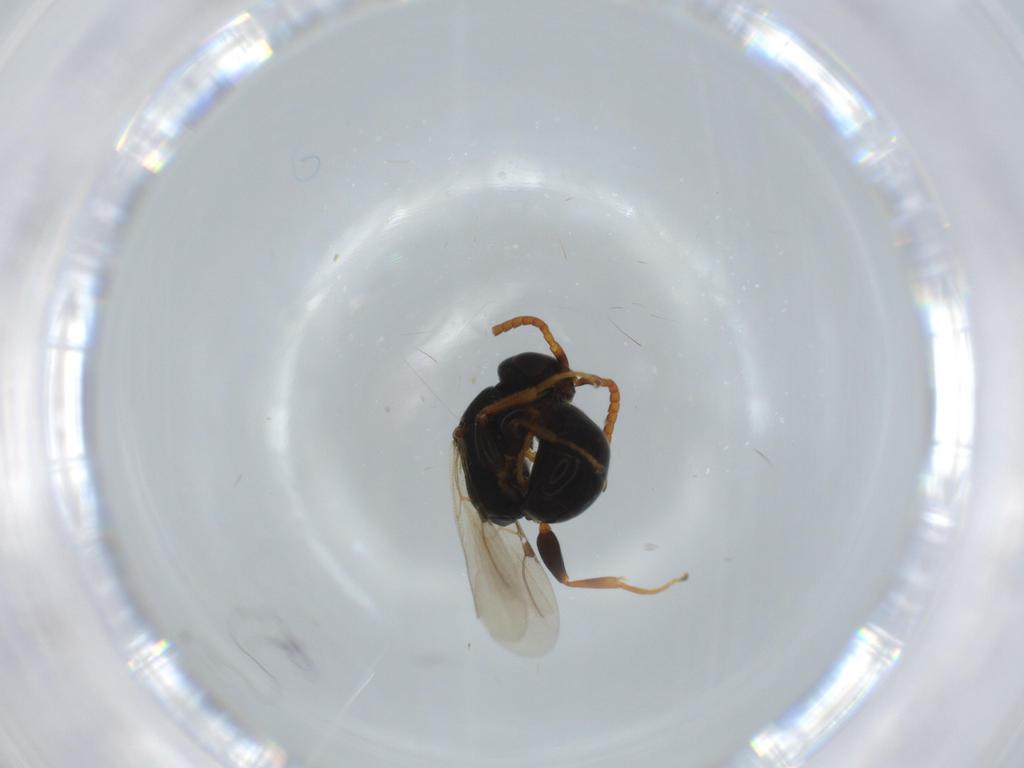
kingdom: Animalia
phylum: Arthropoda
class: Insecta
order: Hymenoptera
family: Bethylidae
